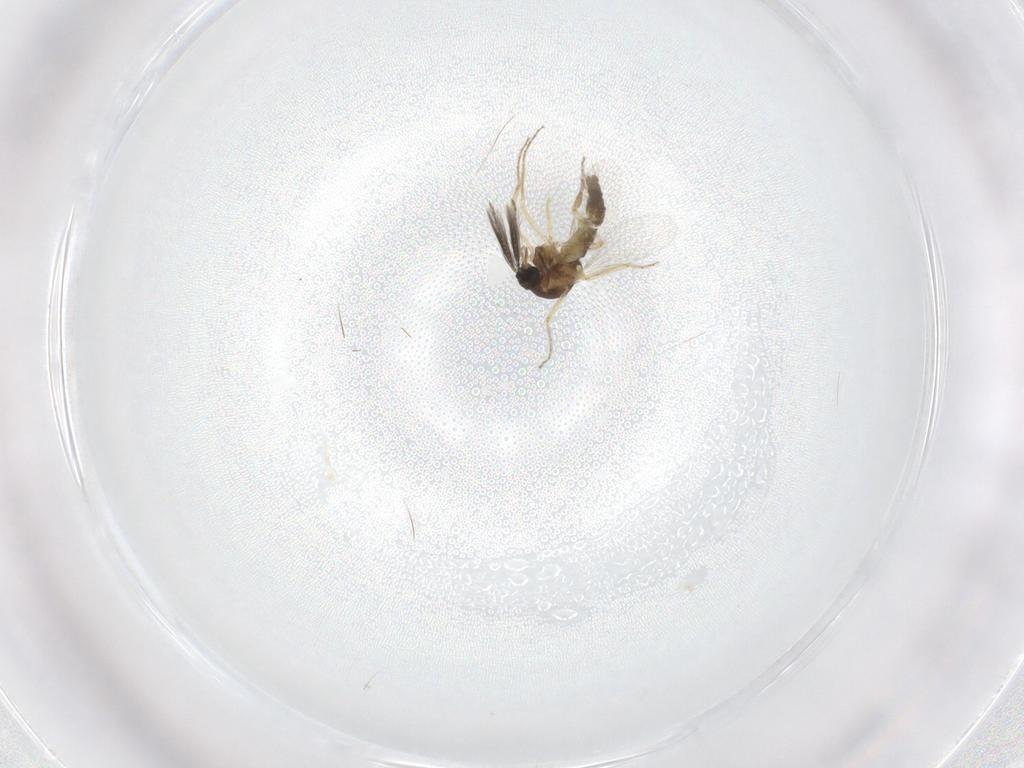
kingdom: Animalia
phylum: Arthropoda
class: Insecta
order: Diptera
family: Ceratopogonidae
